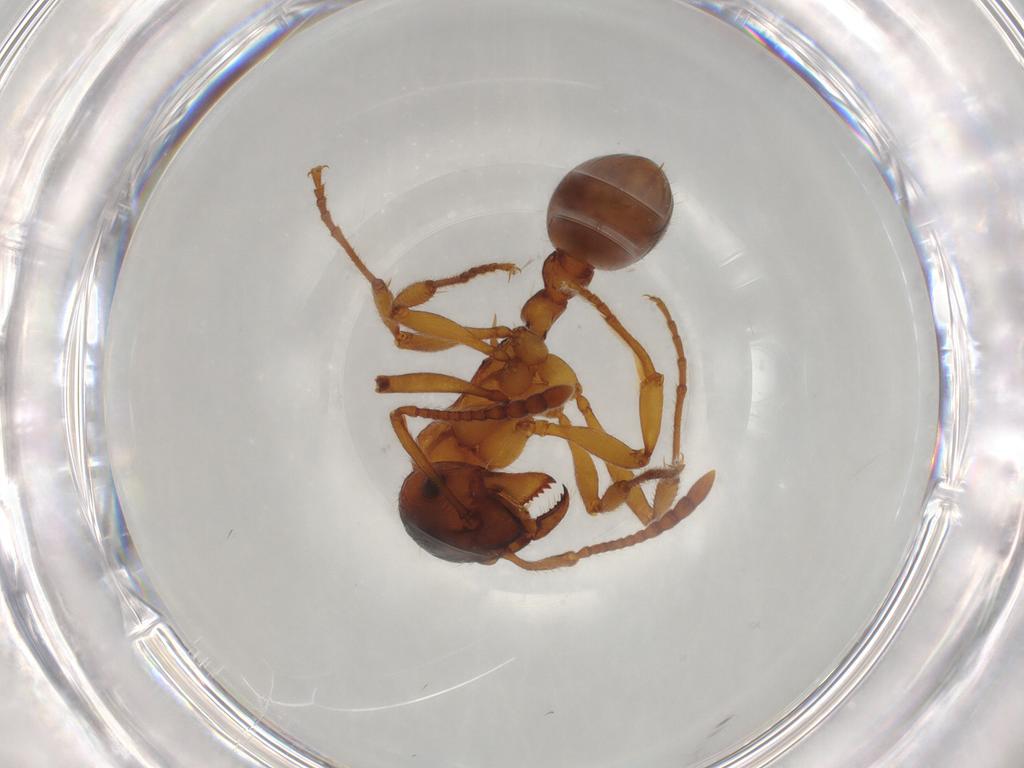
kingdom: Animalia
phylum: Arthropoda
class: Insecta
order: Hymenoptera
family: Formicidae
